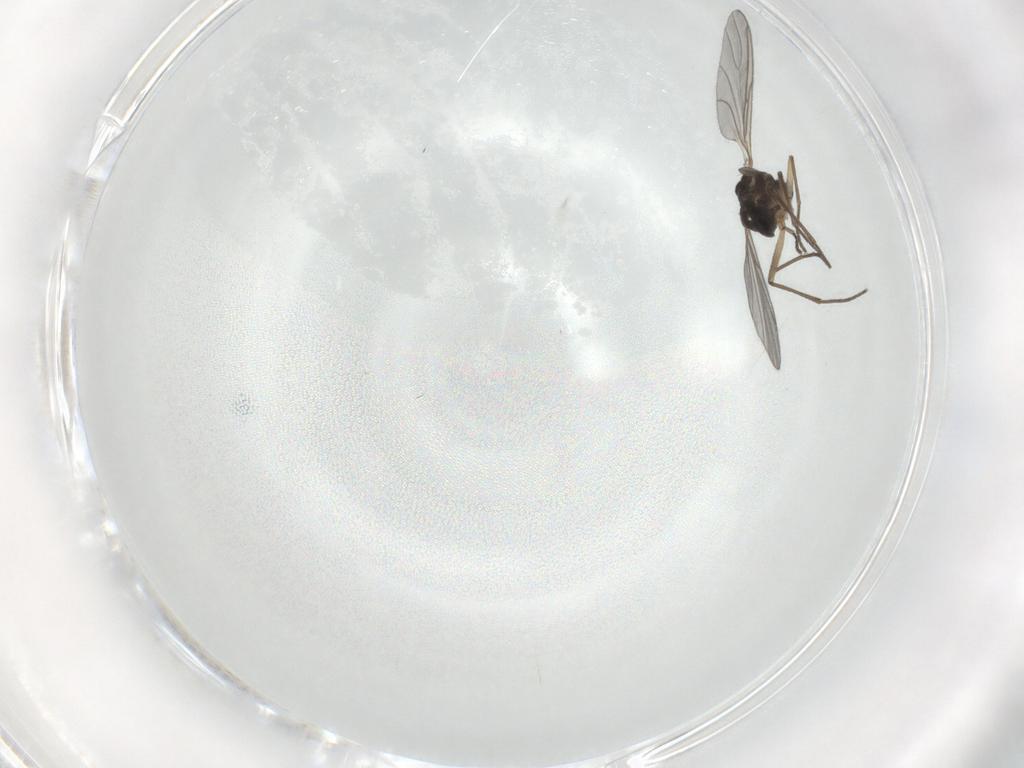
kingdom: Animalia
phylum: Arthropoda
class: Insecta
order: Diptera
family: Sciaridae
